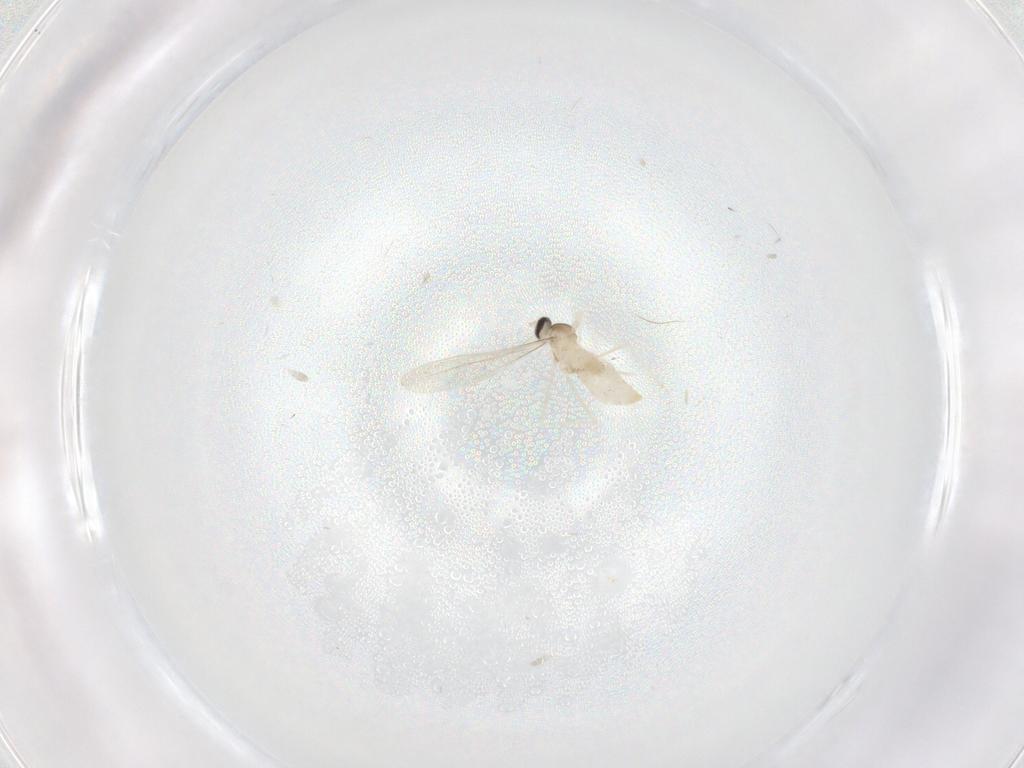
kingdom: Animalia
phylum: Arthropoda
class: Insecta
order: Diptera
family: Cecidomyiidae
